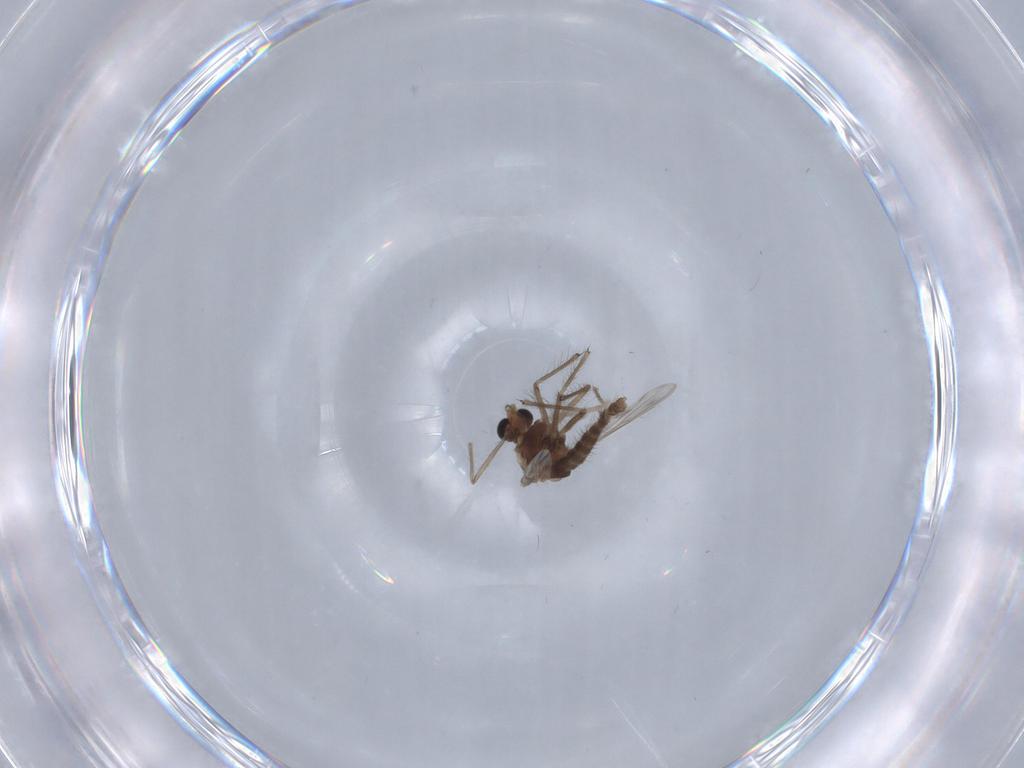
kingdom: Animalia
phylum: Arthropoda
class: Insecta
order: Diptera
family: Chironomidae
